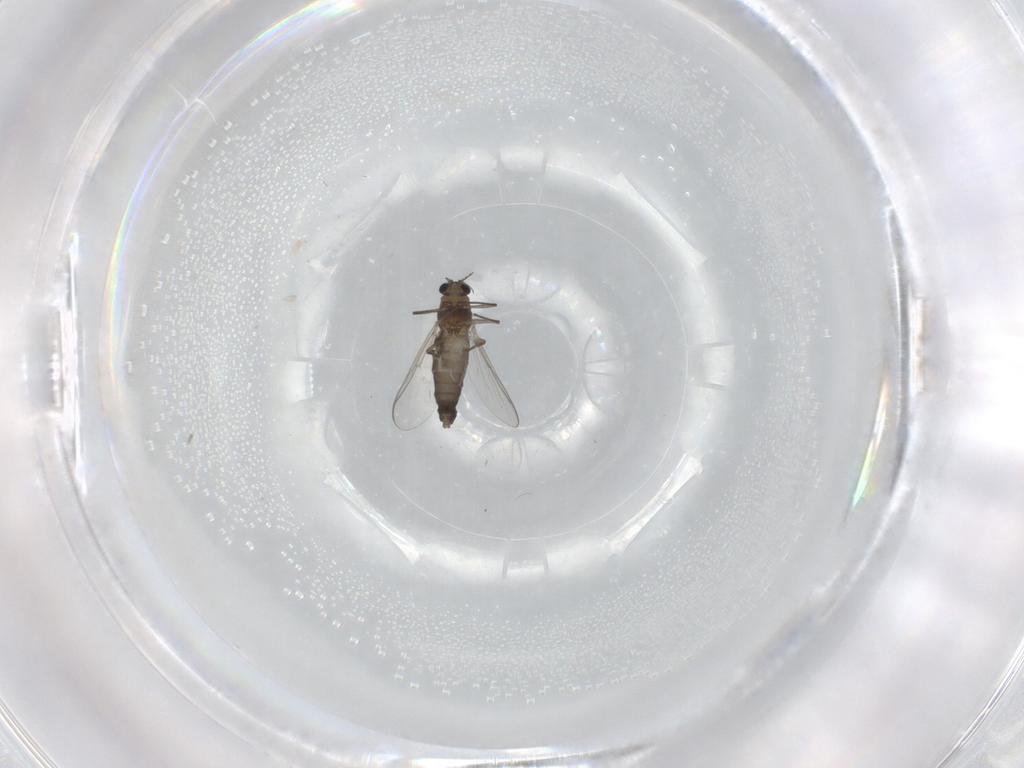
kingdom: Animalia
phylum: Arthropoda
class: Insecta
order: Diptera
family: Chironomidae
